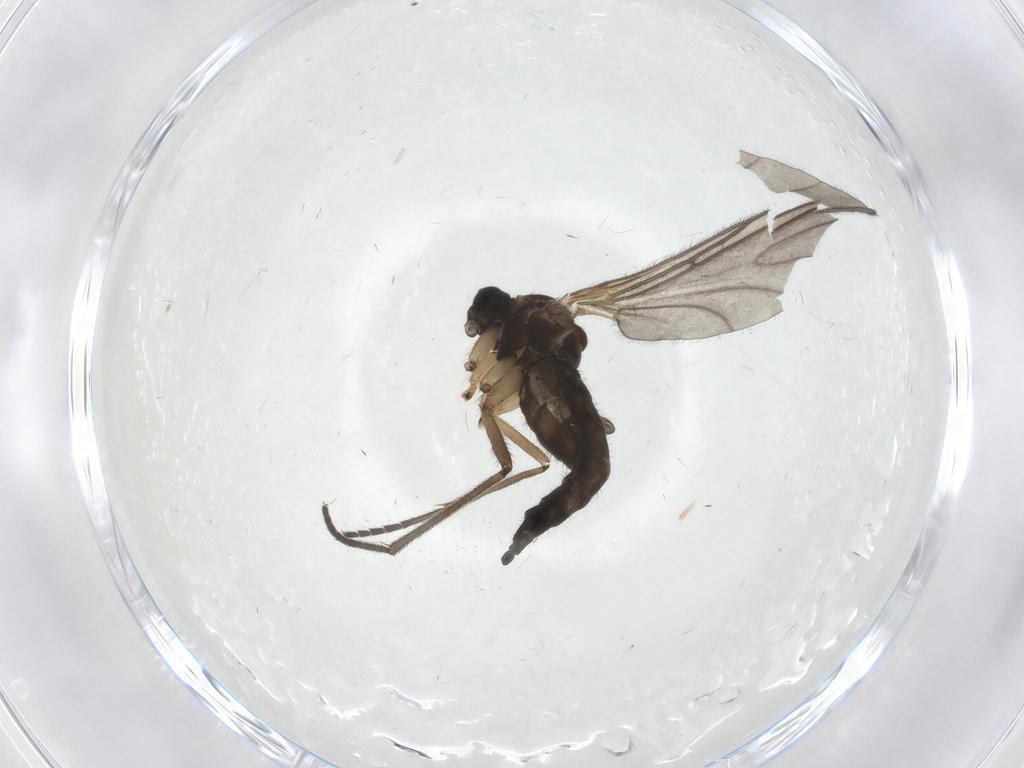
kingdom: Animalia
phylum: Arthropoda
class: Insecta
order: Diptera
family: Sciaridae
